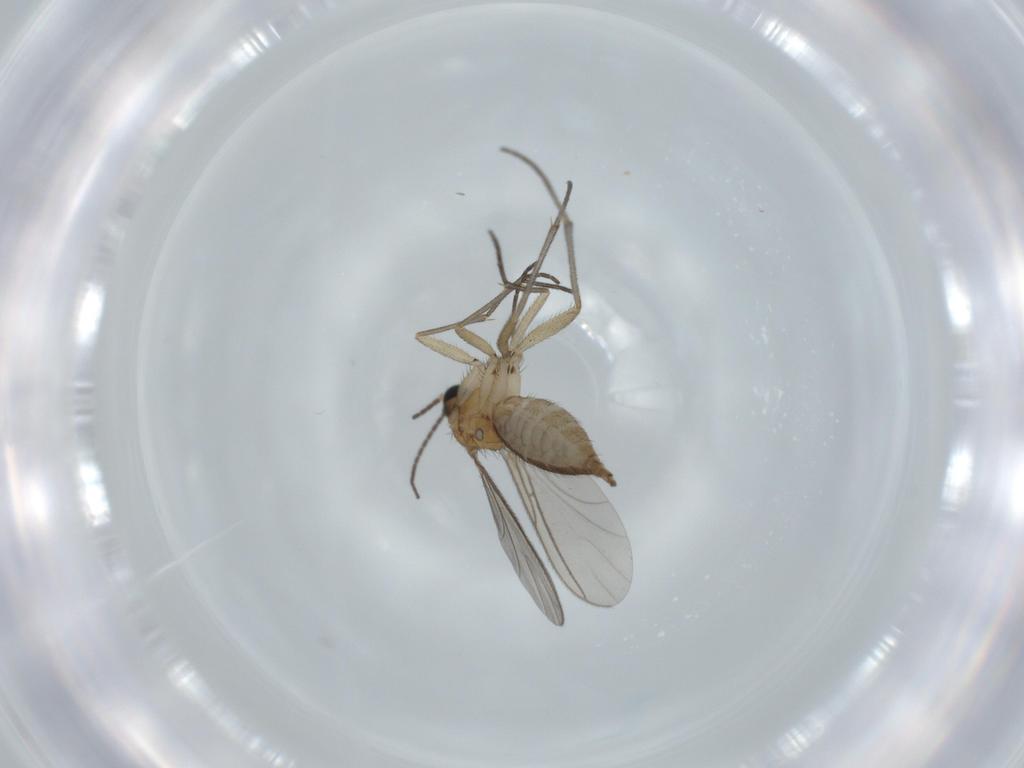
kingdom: Animalia
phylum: Arthropoda
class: Insecta
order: Diptera
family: Sciaridae
